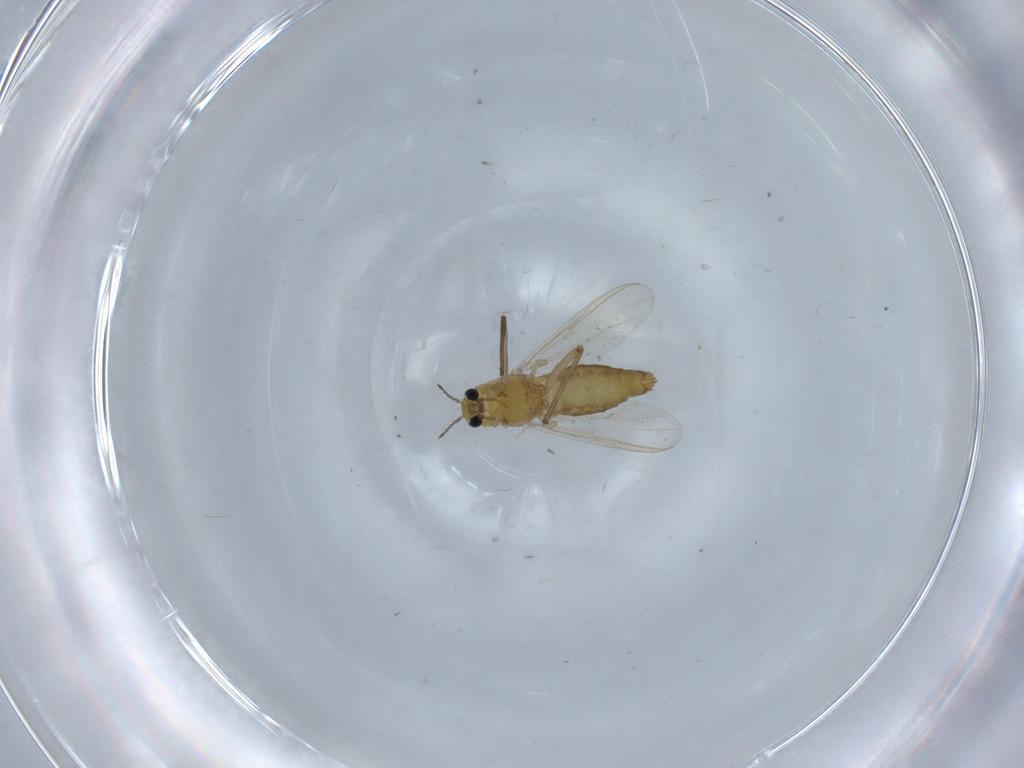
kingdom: Animalia
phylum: Arthropoda
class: Insecta
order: Diptera
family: Chironomidae
